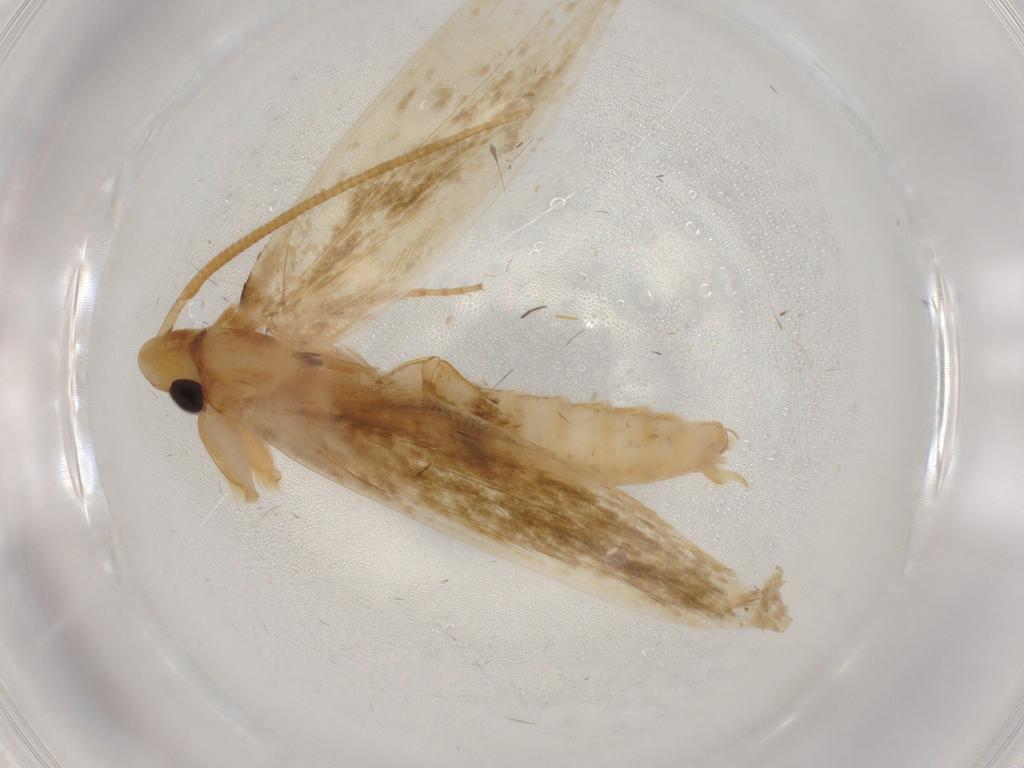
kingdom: Animalia
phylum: Arthropoda
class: Insecta
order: Lepidoptera
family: Tineidae
